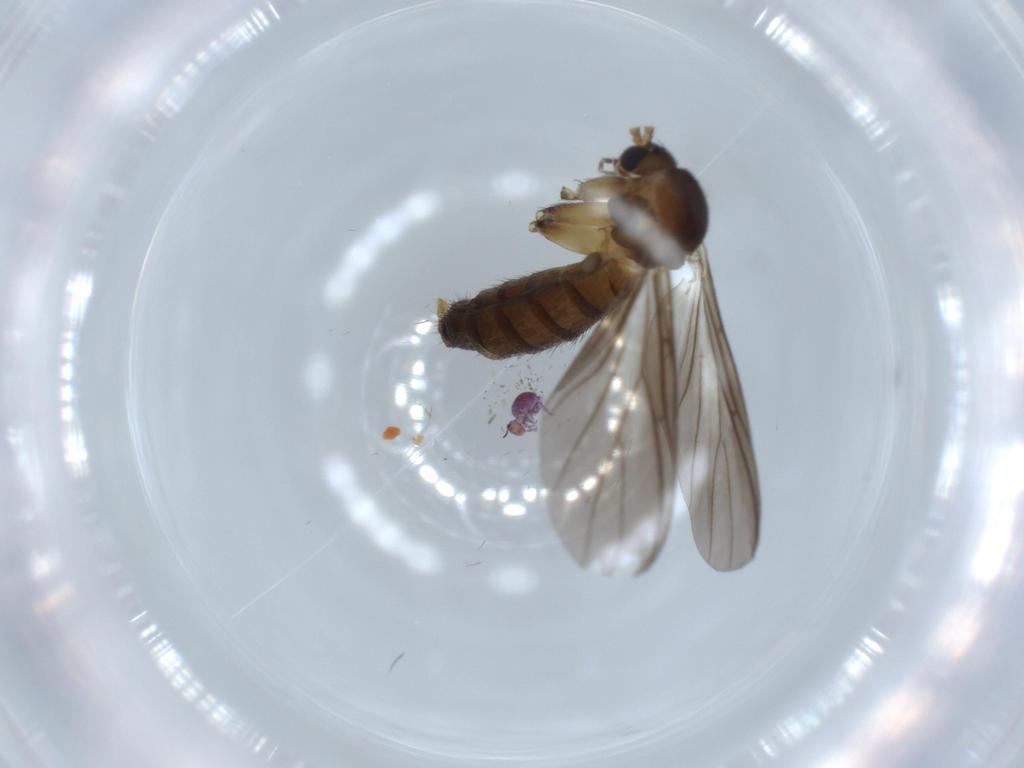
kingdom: Animalia
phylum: Arthropoda
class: Insecta
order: Diptera
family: Mycetophilidae
